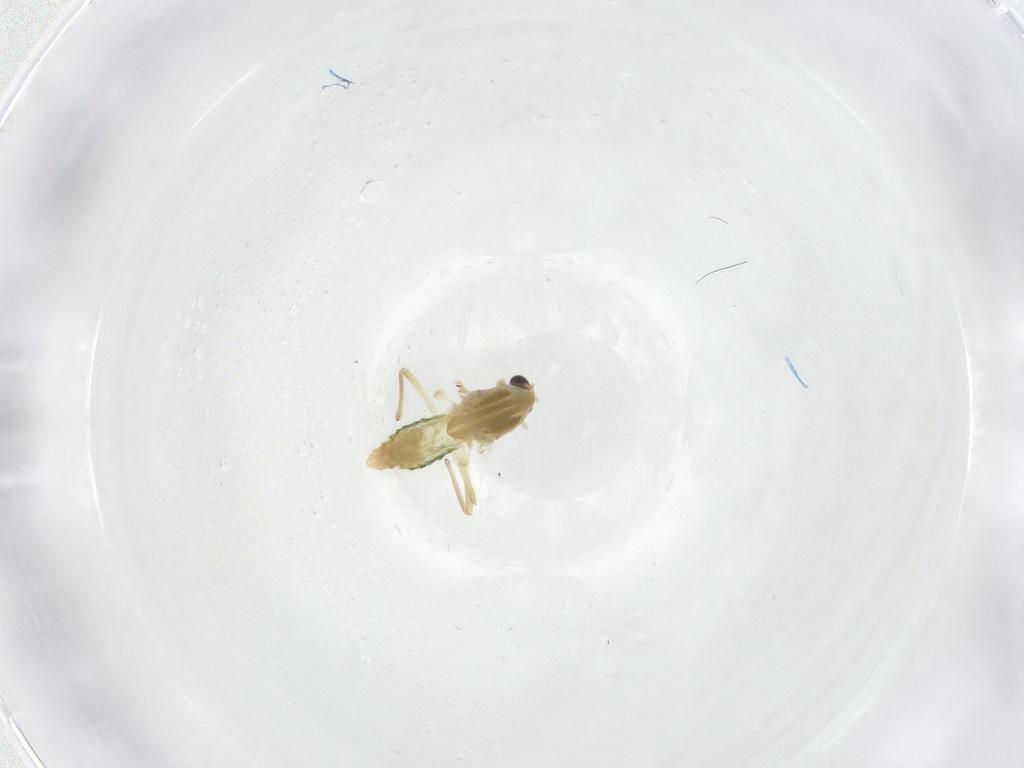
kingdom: Animalia
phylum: Arthropoda
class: Insecta
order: Diptera
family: Chironomidae
